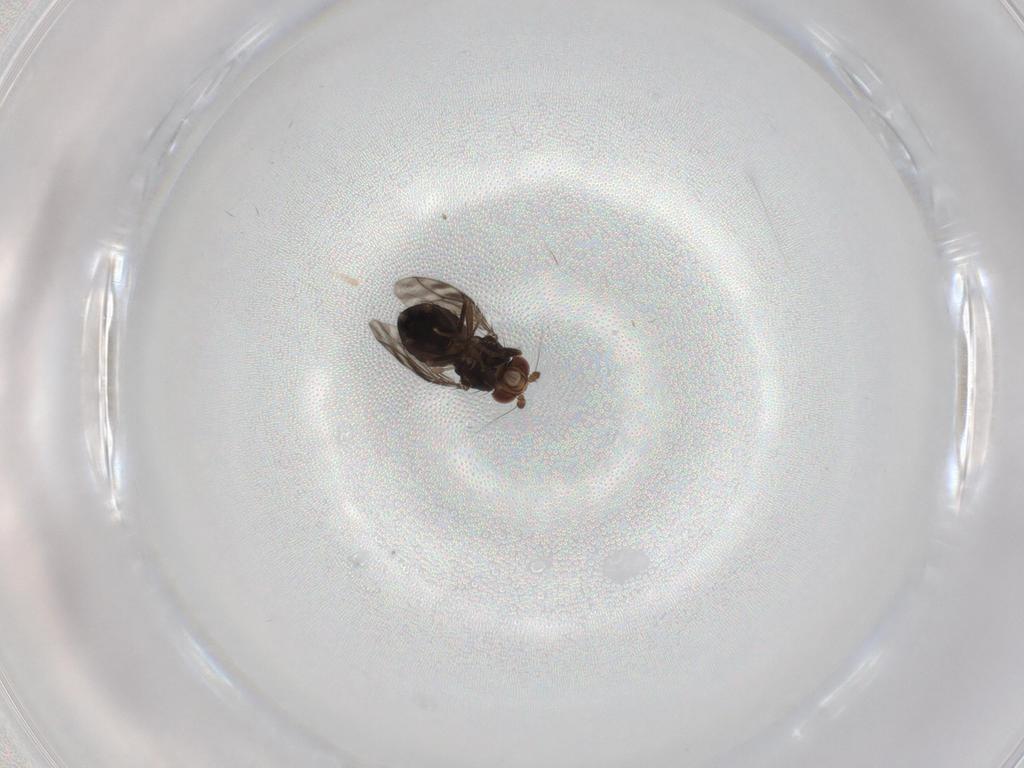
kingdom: Animalia
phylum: Arthropoda
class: Insecta
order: Diptera
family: Sphaeroceridae
